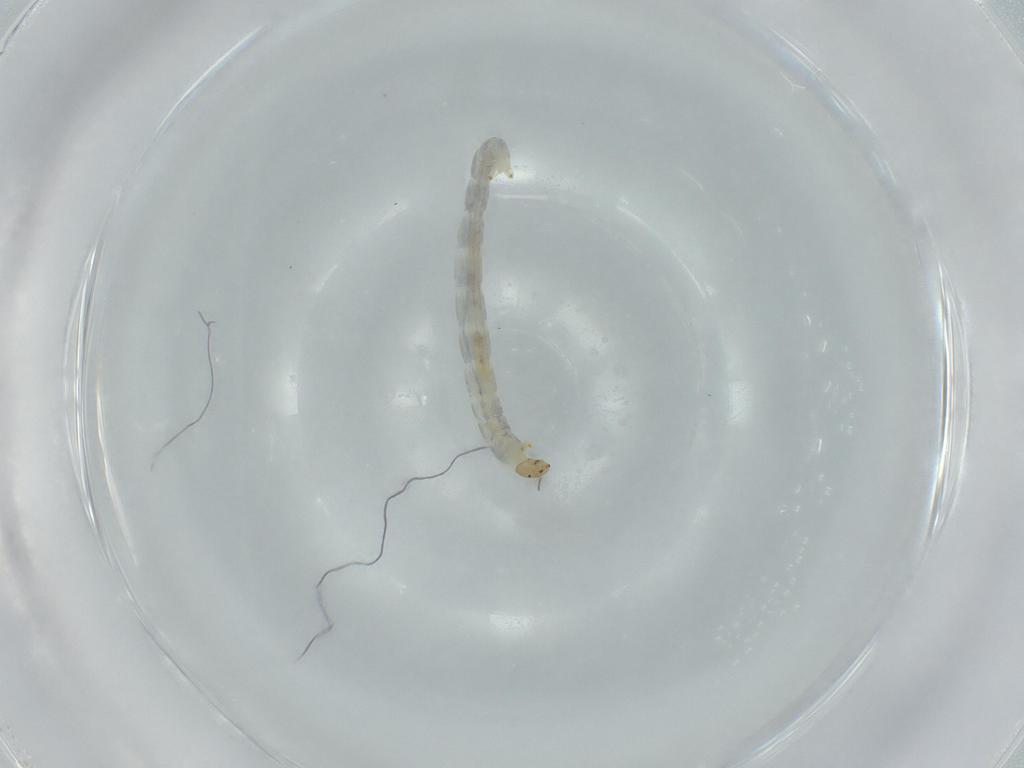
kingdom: Animalia
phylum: Arthropoda
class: Insecta
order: Diptera
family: Chironomidae
